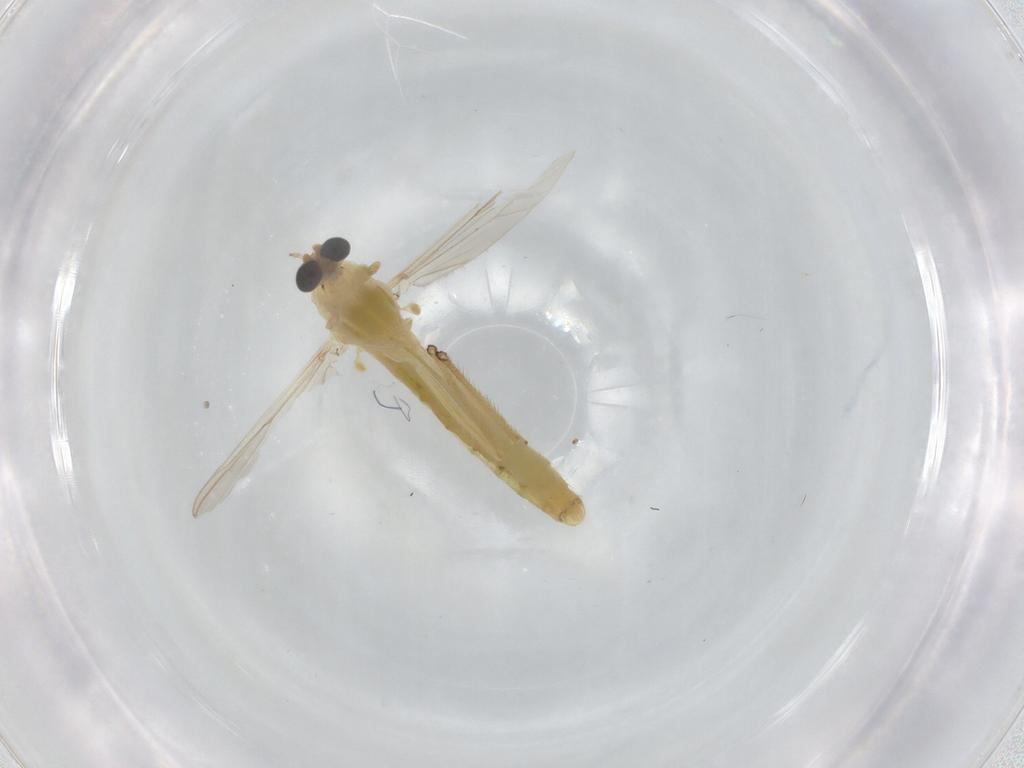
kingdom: Animalia
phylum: Arthropoda
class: Insecta
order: Diptera
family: Chironomidae
